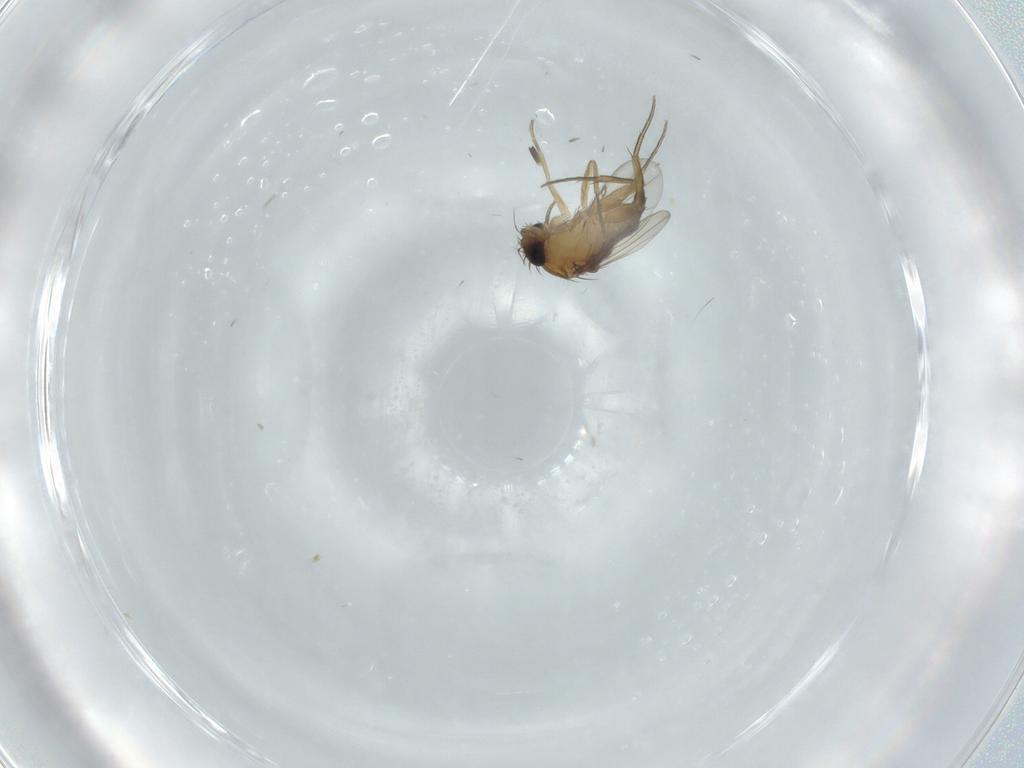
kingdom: Animalia
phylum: Arthropoda
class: Insecta
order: Diptera
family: Phoridae
